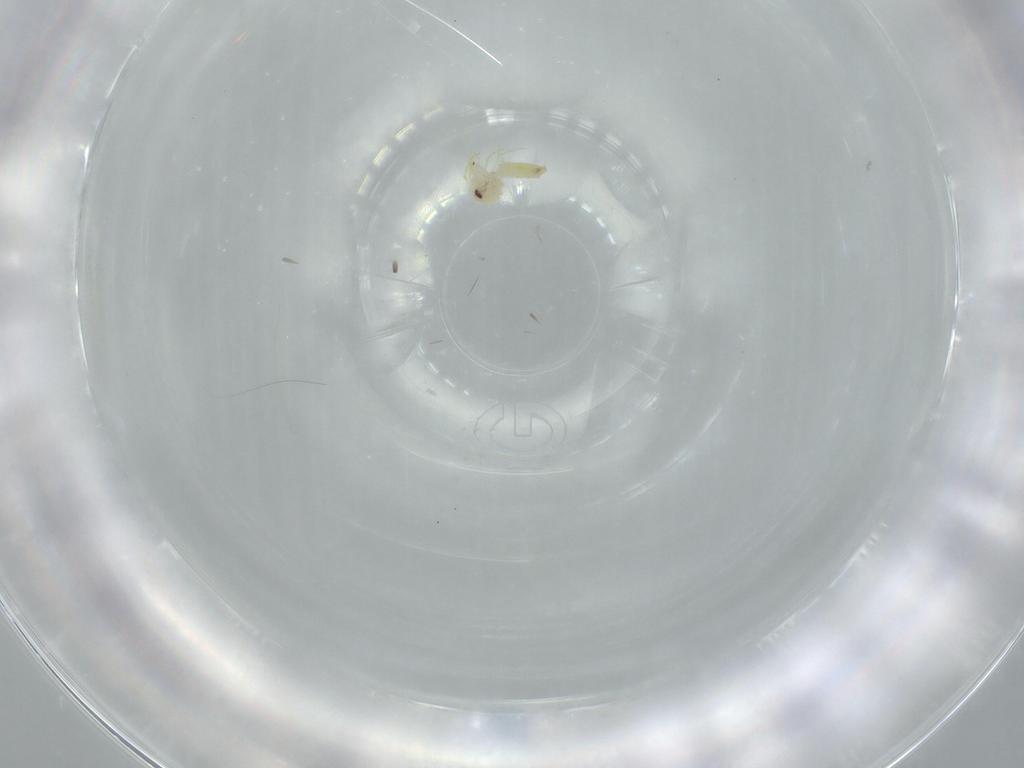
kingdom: Animalia
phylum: Arthropoda
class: Insecta
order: Hemiptera
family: Aleyrodidae
